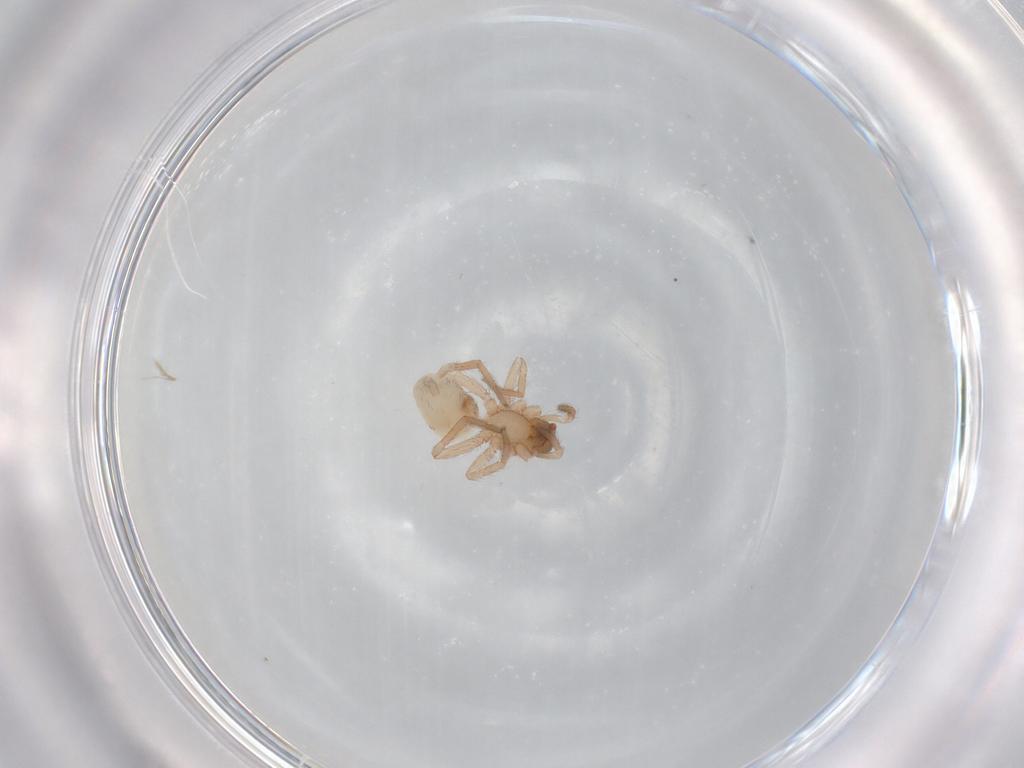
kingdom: Animalia
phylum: Arthropoda
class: Arachnida
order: Araneae
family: Hahniidae
